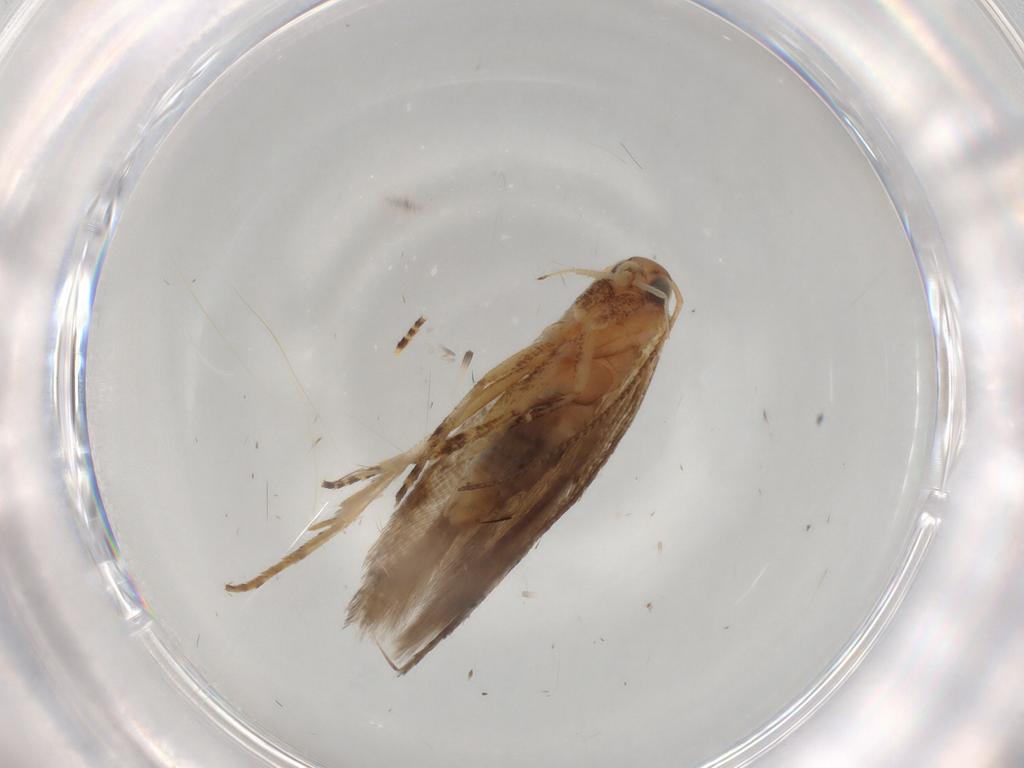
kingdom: Animalia
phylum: Arthropoda
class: Insecta
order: Lepidoptera
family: Gelechiidae
